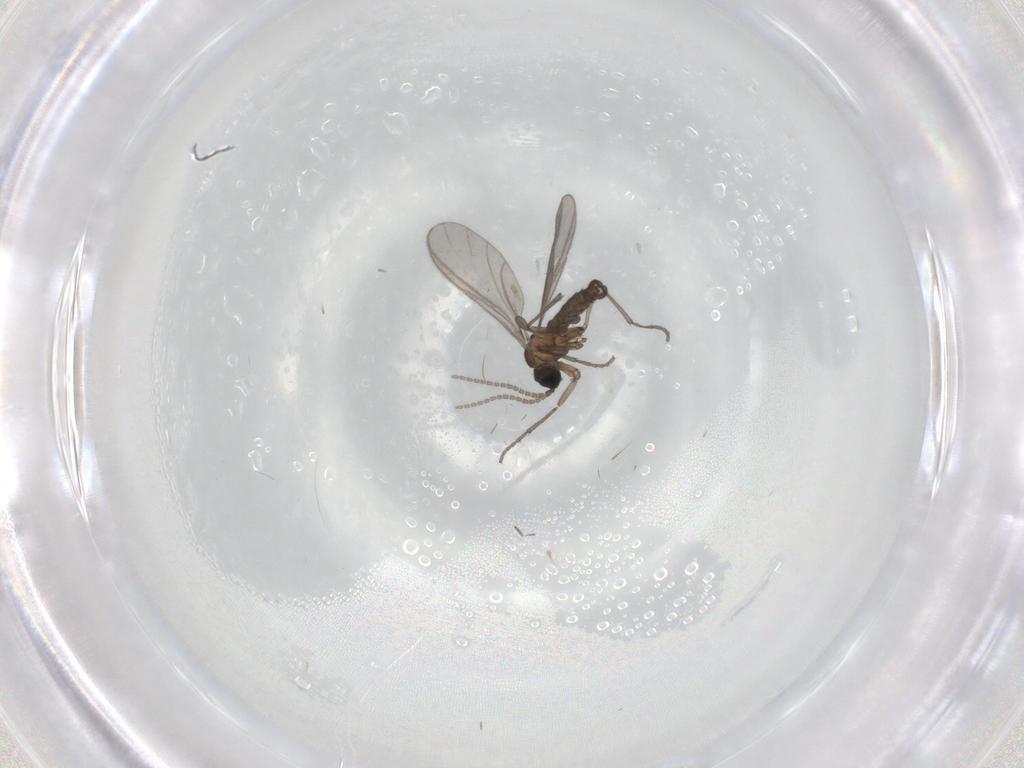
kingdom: Animalia
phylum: Arthropoda
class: Insecta
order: Diptera
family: Sciaridae
